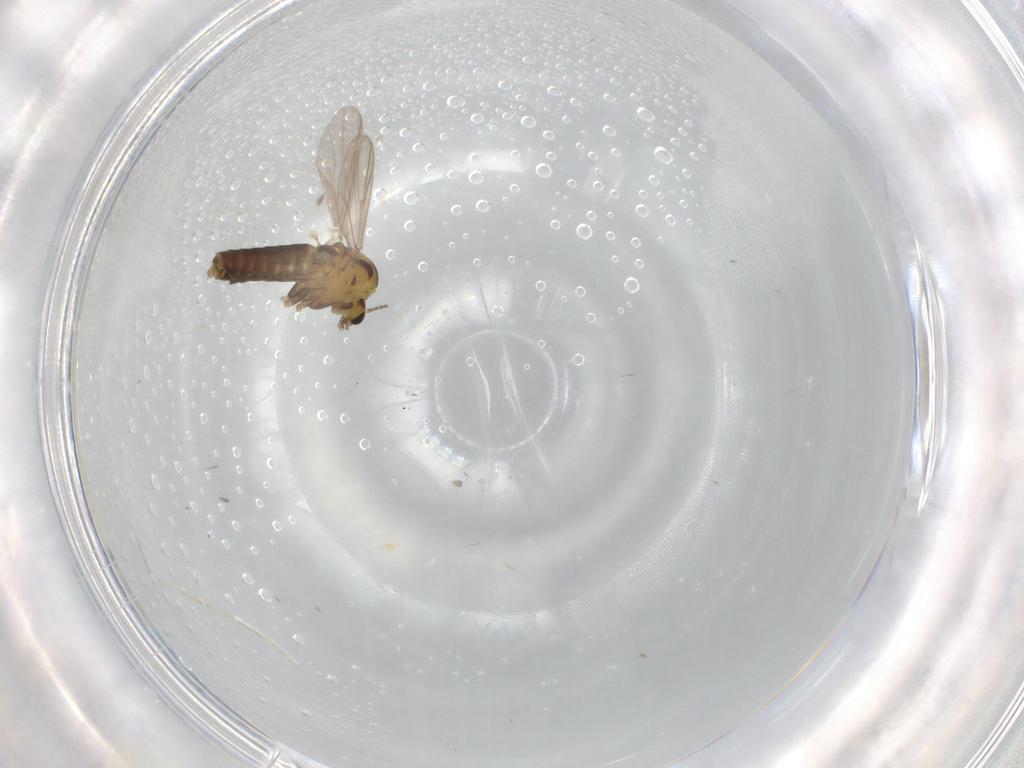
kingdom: Animalia
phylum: Arthropoda
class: Insecta
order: Diptera
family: Chironomidae
